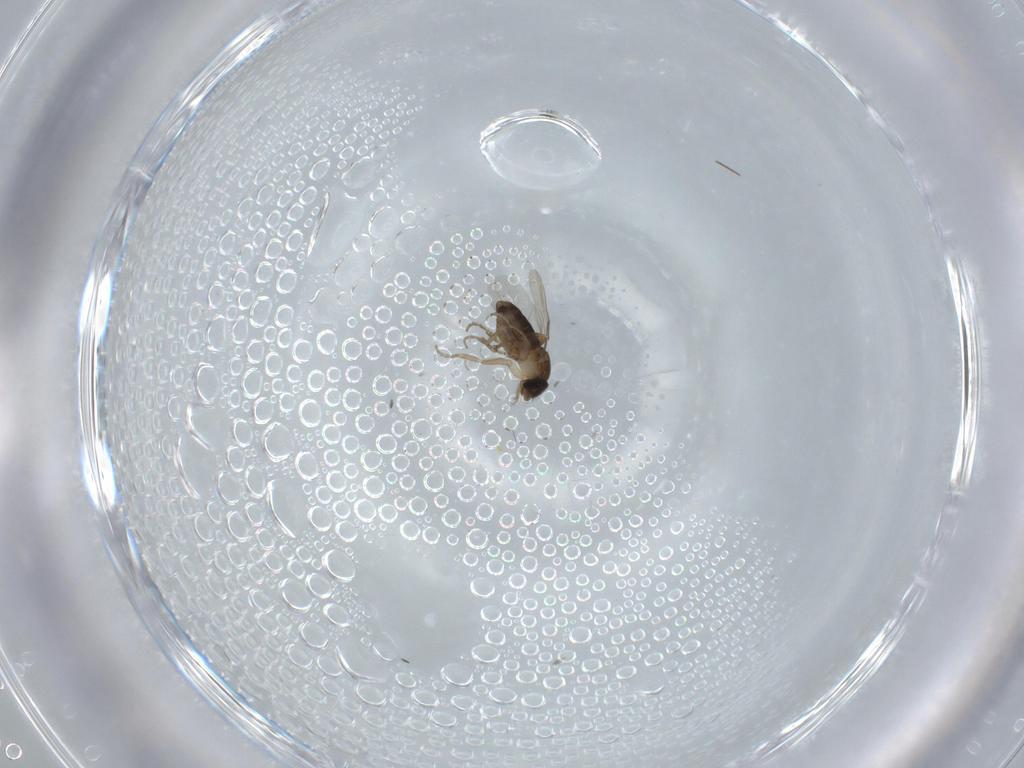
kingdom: Animalia
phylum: Arthropoda
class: Insecta
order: Diptera
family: Phoridae
